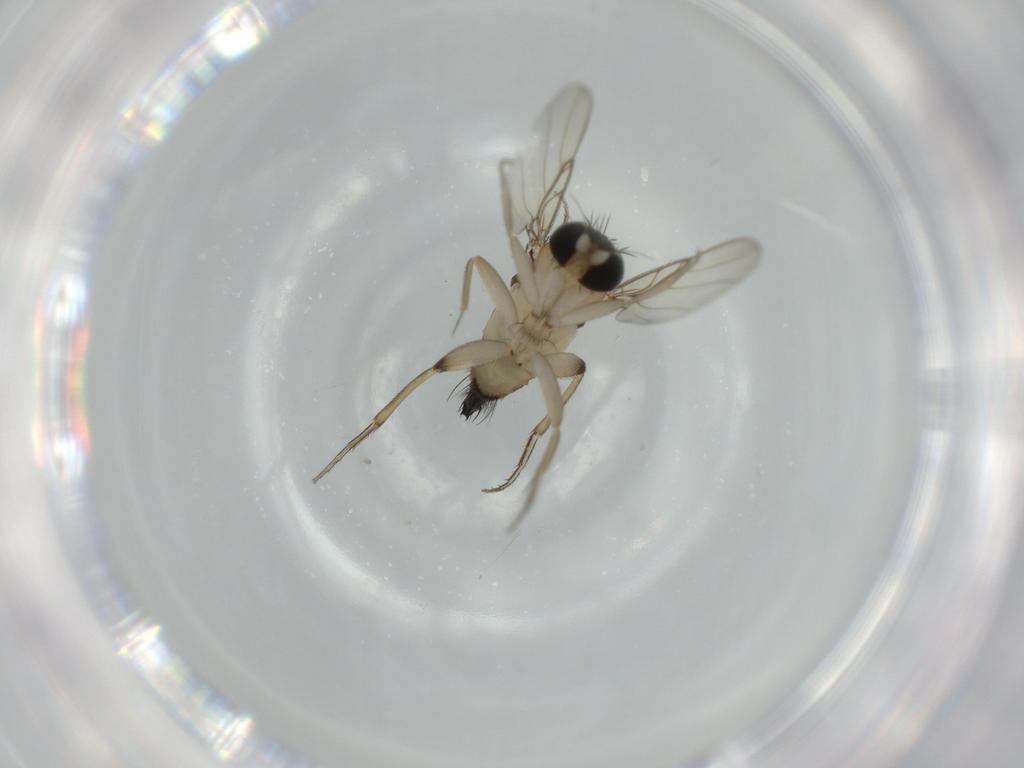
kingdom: Animalia
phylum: Arthropoda
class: Insecta
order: Diptera
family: Phoridae
